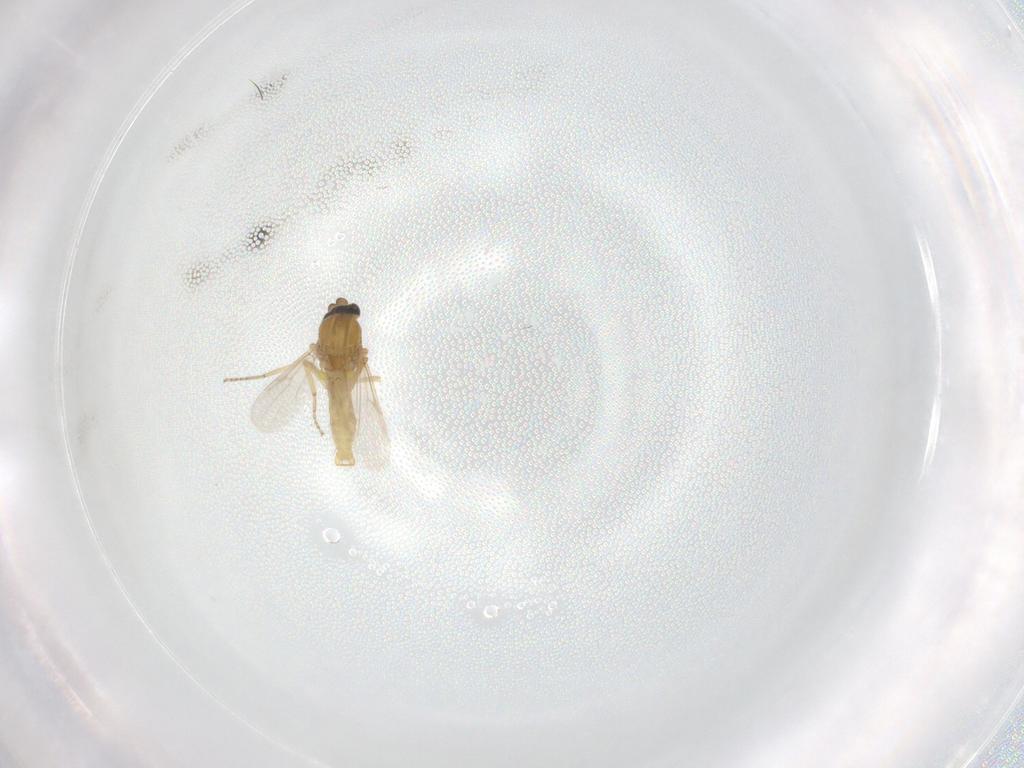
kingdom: Animalia
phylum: Arthropoda
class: Insecta
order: Diptera
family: Ceratopogonidae
